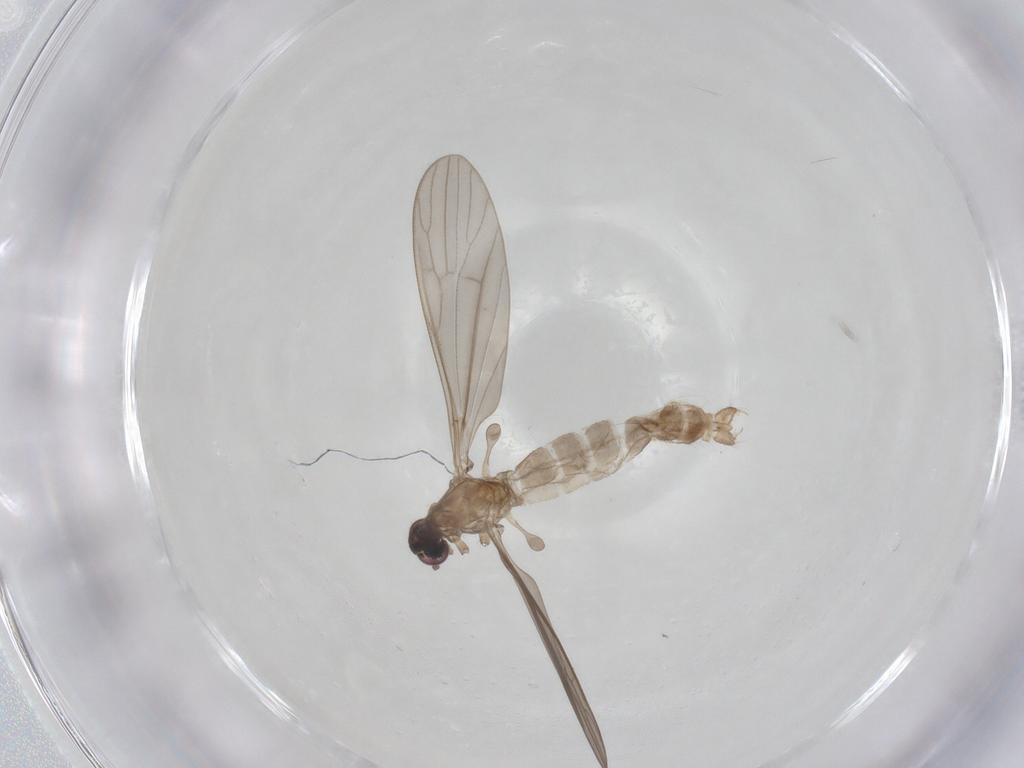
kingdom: Animalia
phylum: Arthropoda
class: Insecta
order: Diptera
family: Limoniidae
